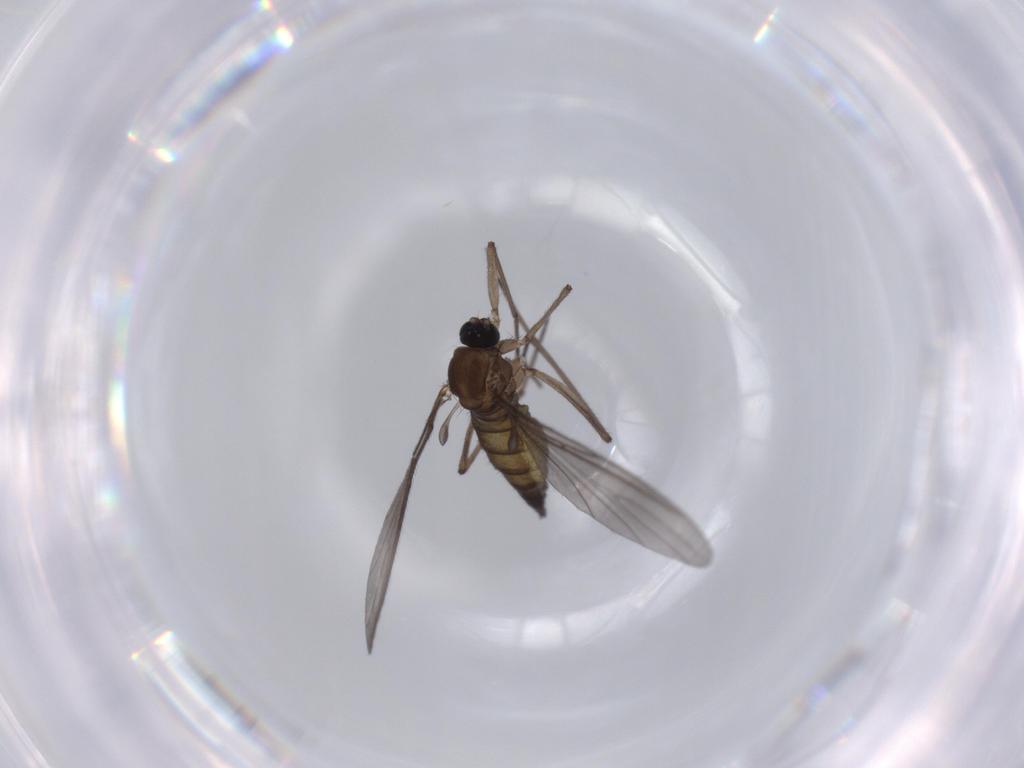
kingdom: Animalia
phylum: Arthropoda
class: Insecta
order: Diptera
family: Sciaridae
